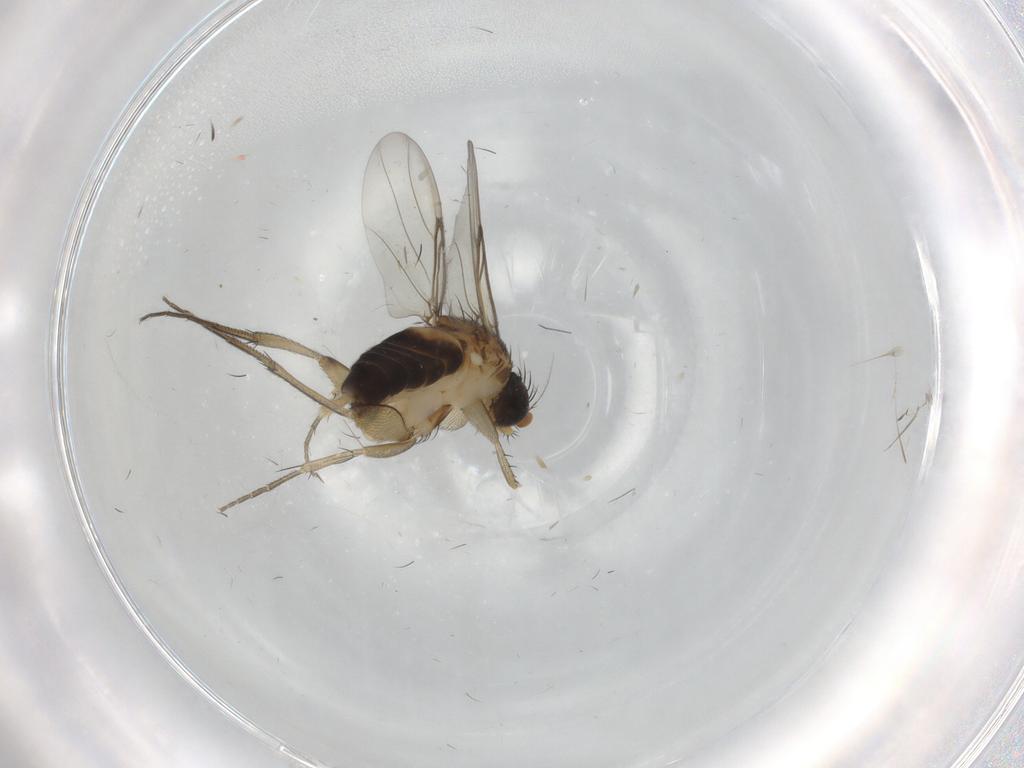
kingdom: Animalia
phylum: Arthropoda
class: Insecta
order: Diptera
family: Phoridae
